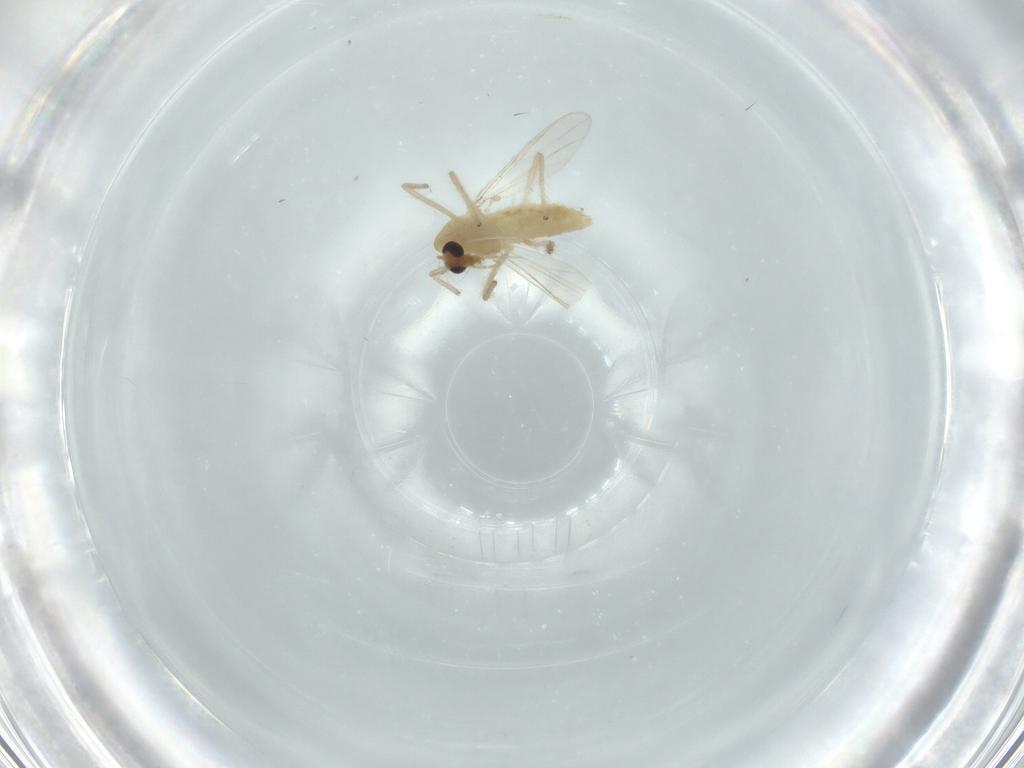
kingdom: Animalia
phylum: Arthropoda
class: Insecta
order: Diptera
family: Chironomidae
